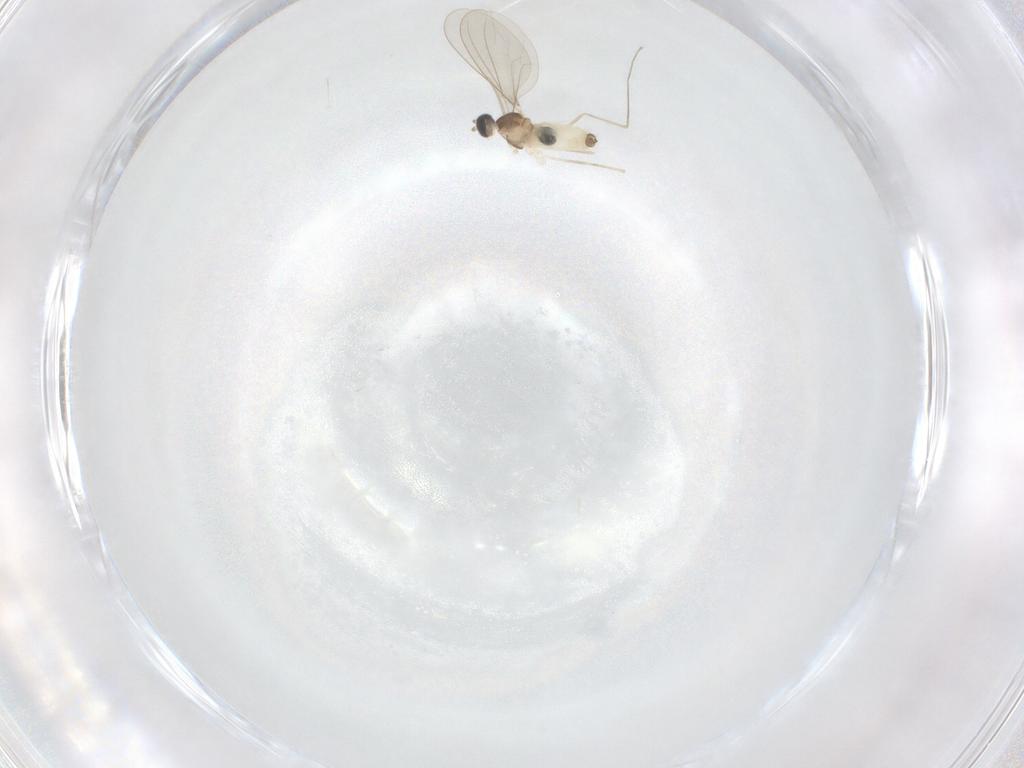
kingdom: Animalia
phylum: Arthropoda
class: Insecta
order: Diptera
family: Cecidomyiidae
